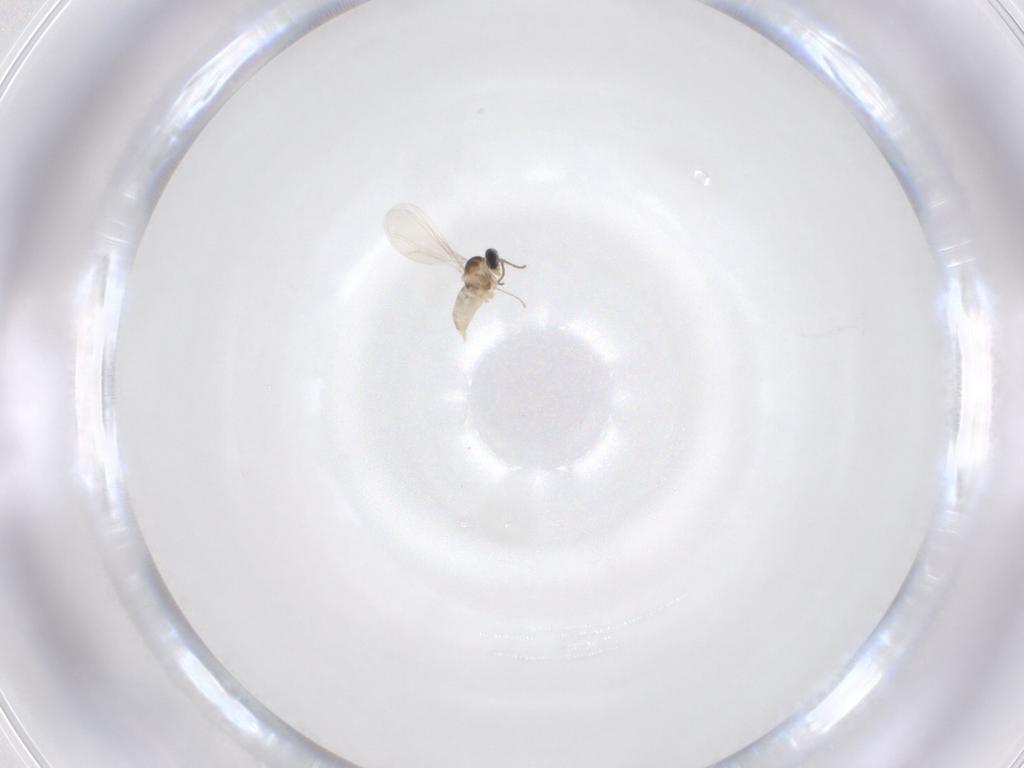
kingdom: Animalia
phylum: Arthropoda
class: Insecta
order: Diptera
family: Cecidomyiidae
